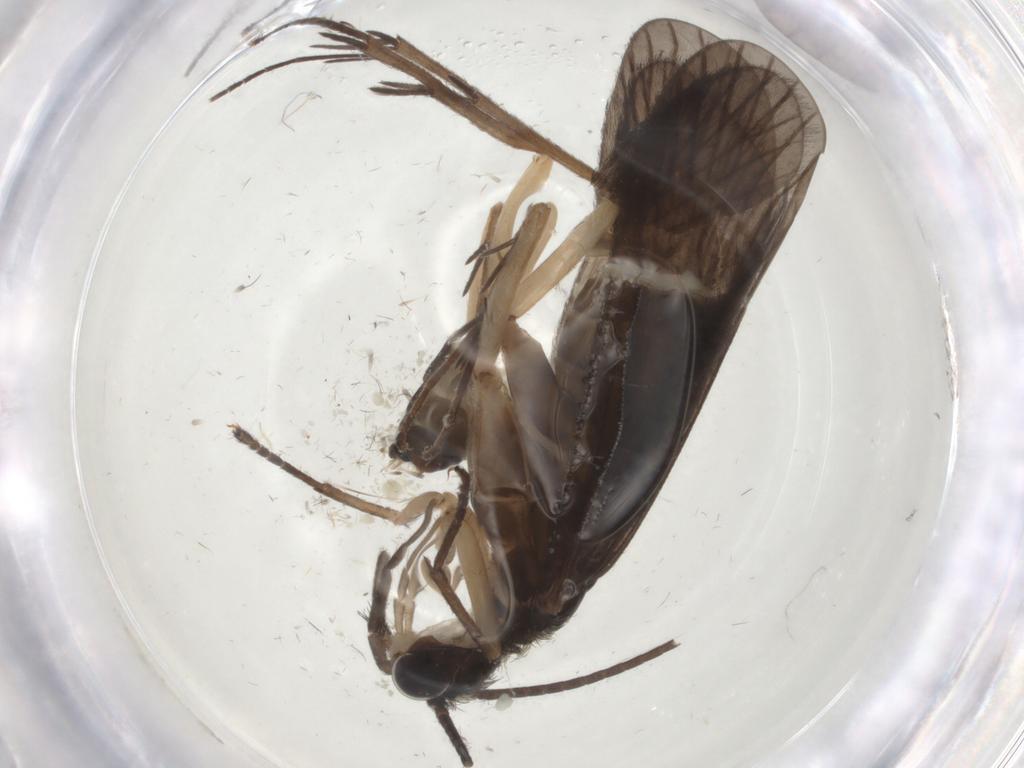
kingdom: Animalia
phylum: Arthropoda
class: Insecta
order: Trichoptera
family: Philopotamidae
